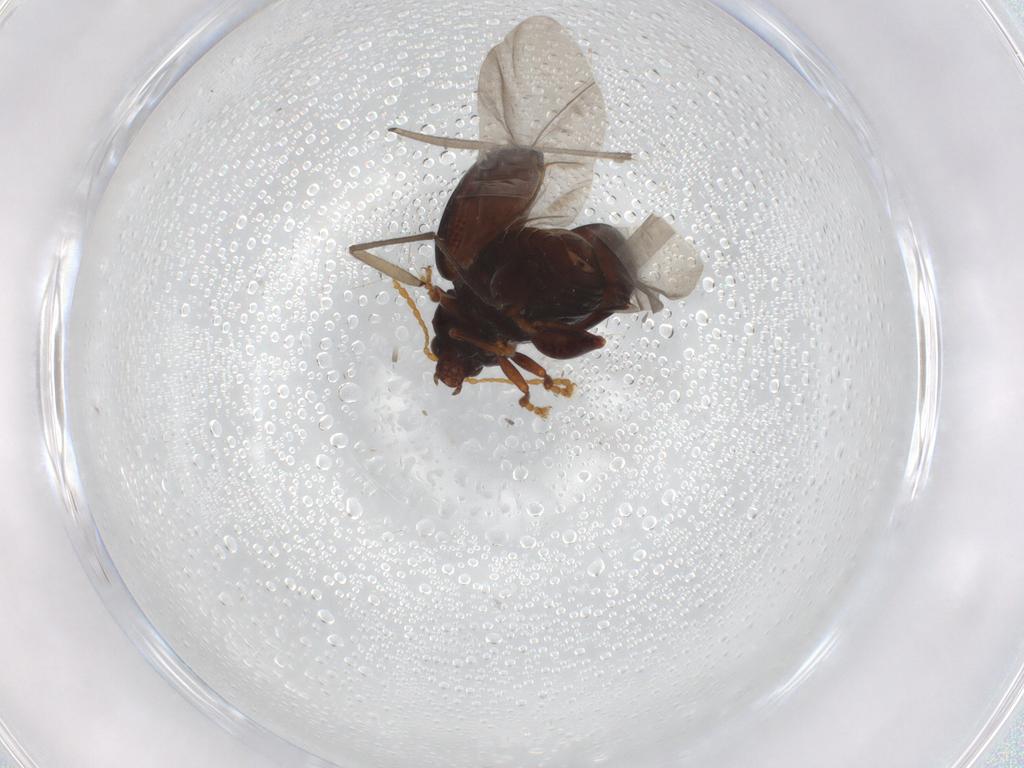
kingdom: Animalia
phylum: Arthropoda
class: Insecta
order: Coleoptera
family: Chrysomelidae
